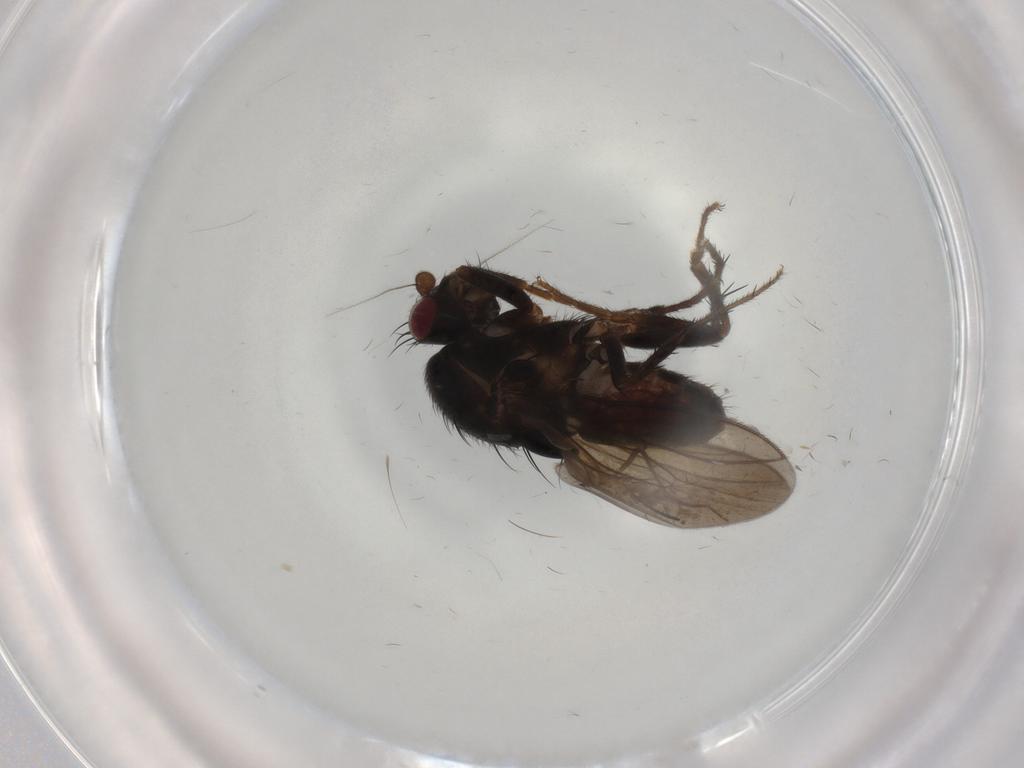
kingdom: Animalia
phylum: Arthropoda
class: Insecta
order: Diptera
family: Sphaeroceridae
